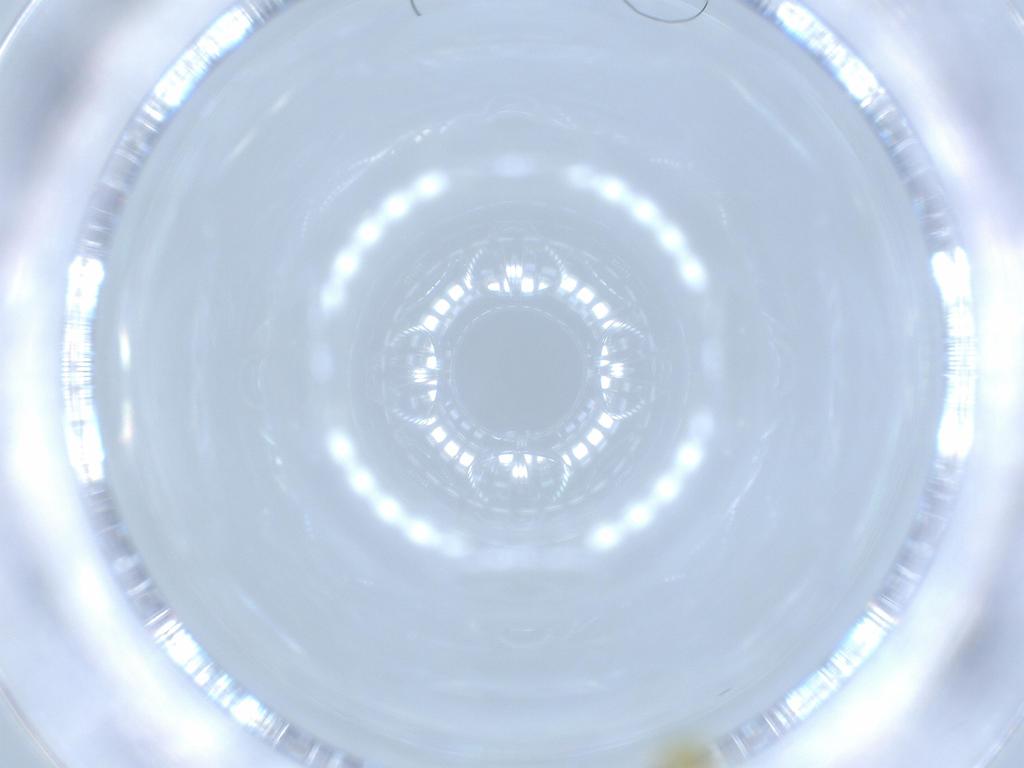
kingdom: Animalia
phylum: Arthropoda
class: Insecta
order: Hemiptera
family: Aleyrodidae
